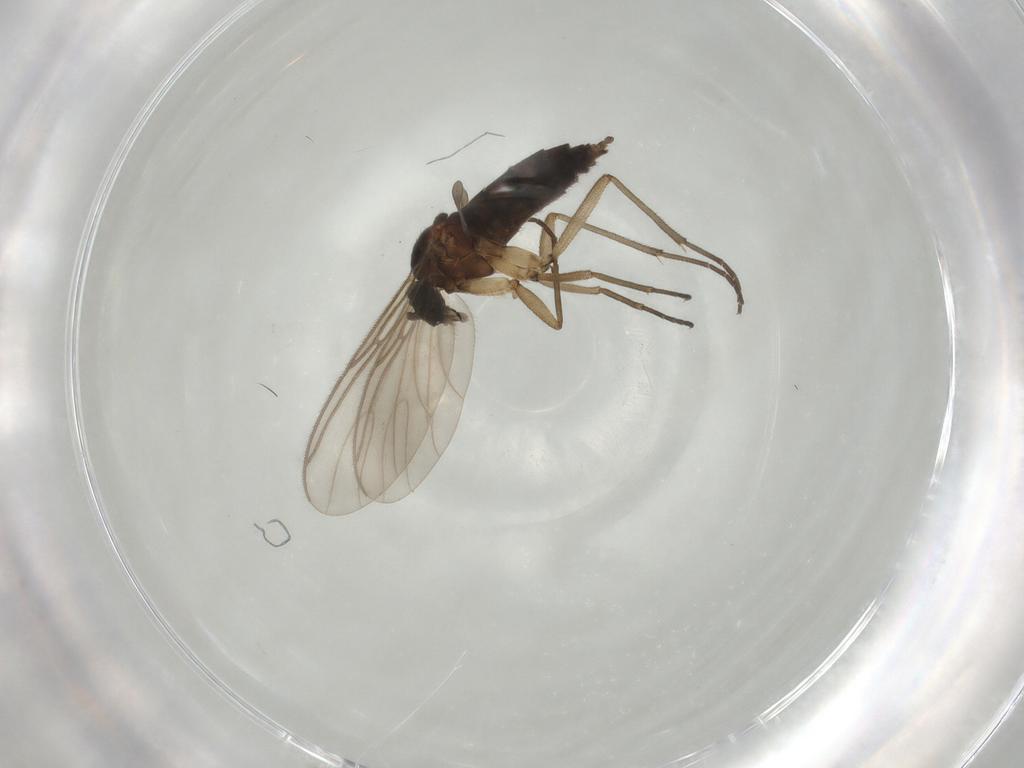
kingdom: Animalia
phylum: Arthropoda
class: Insecta
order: Diptera
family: Sciaridae
